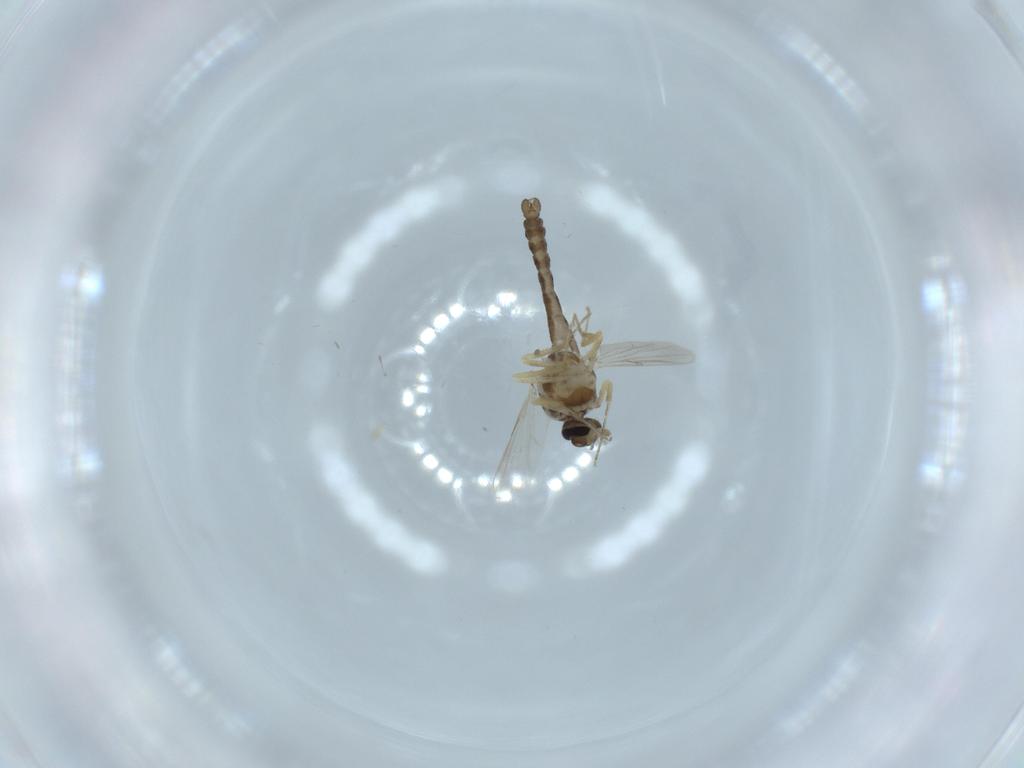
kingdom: Animalia
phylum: Arthropoda
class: Insecta
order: Diptera
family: Ceratopogonidae
